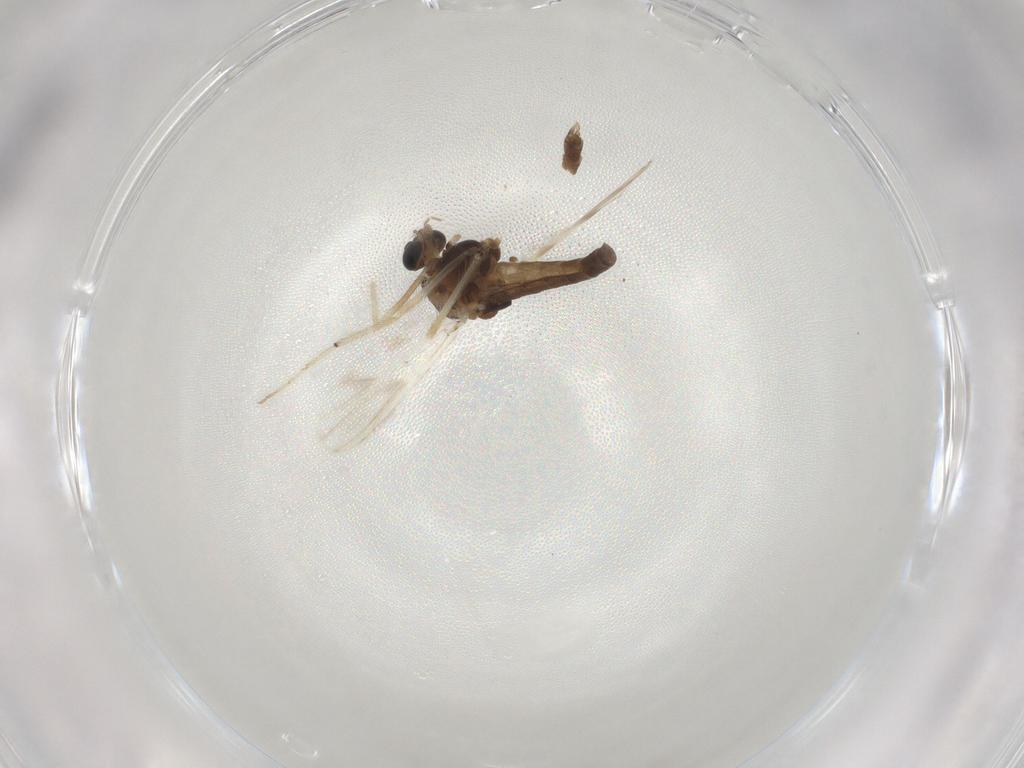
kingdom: Animalia
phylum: Arthropoda
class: Insecta
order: Diptera
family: Chironomidae
